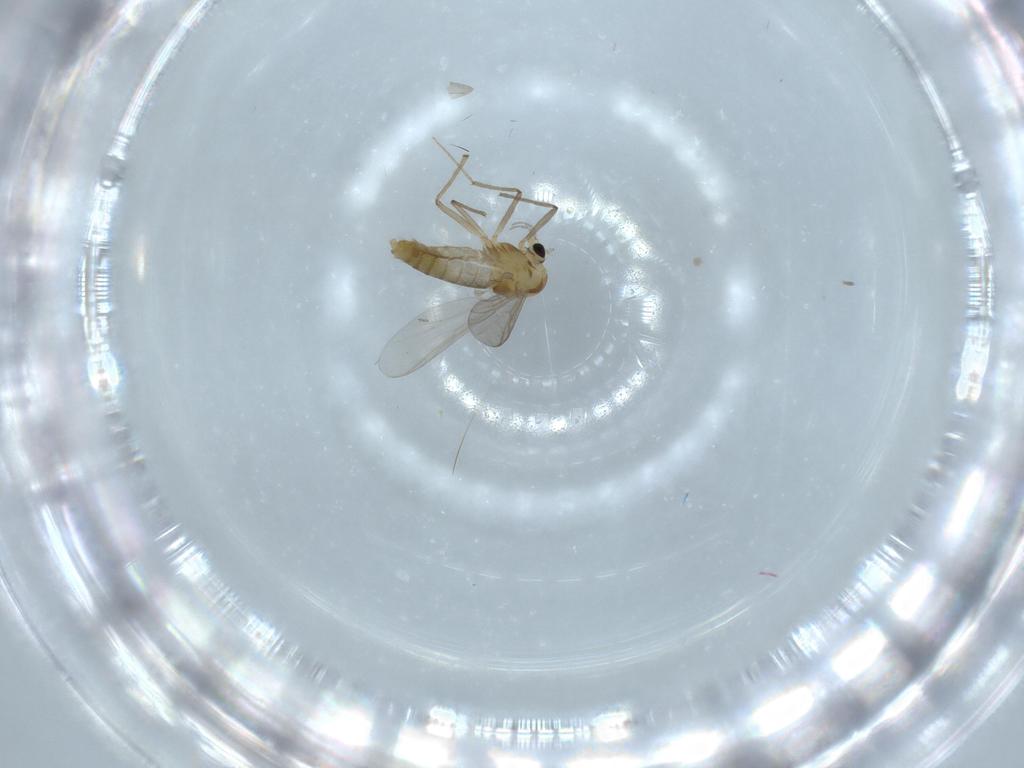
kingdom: Animalia
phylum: Arthropoda
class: Insecta
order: Diptera
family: Chironomidae
